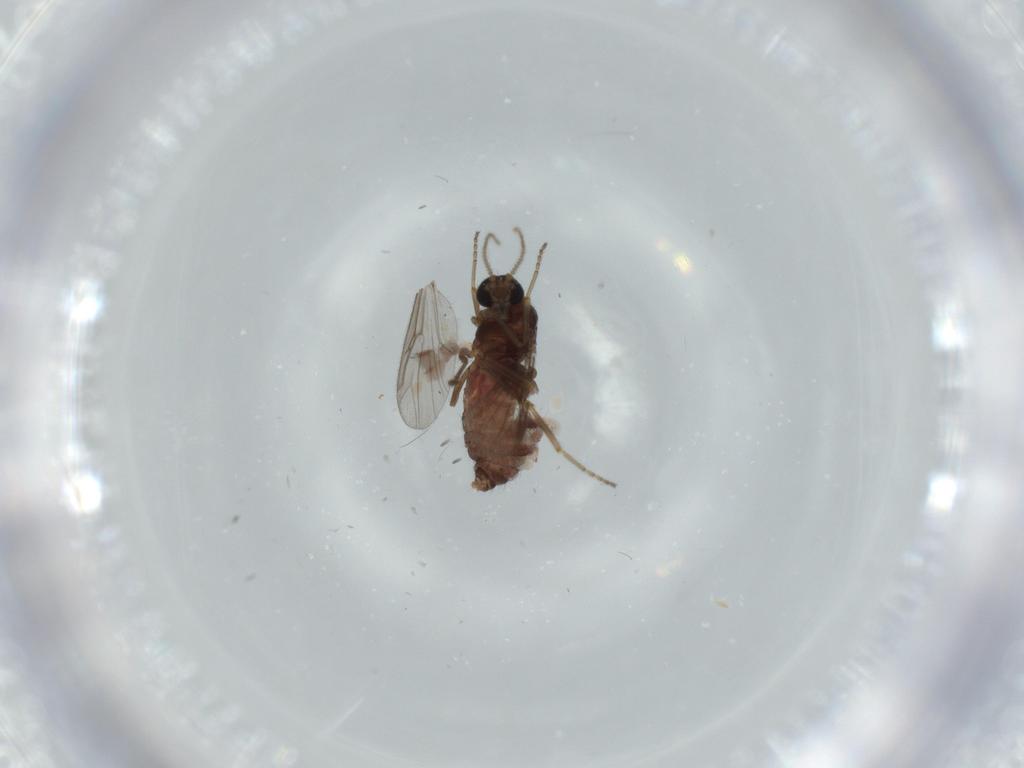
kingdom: Animalia
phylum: Arthropoda
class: Insecta
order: Diptera
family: Ceratopogonidae
